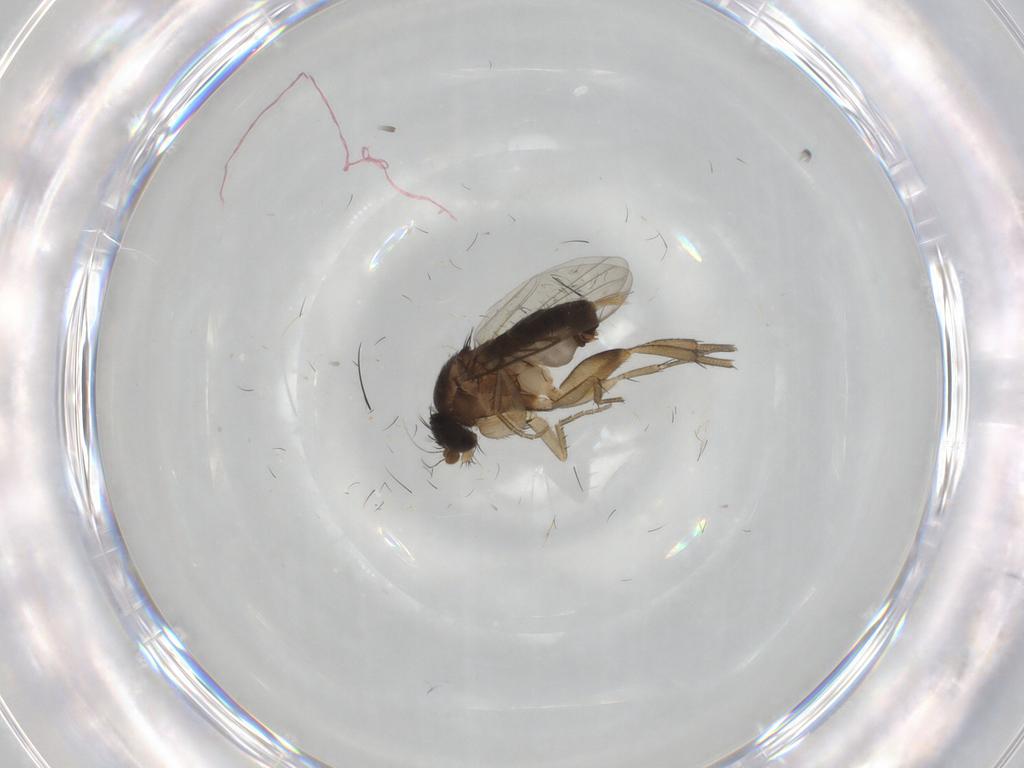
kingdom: Animalia
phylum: Arthropoda
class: Insecta
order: Diptera
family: Phoridae
